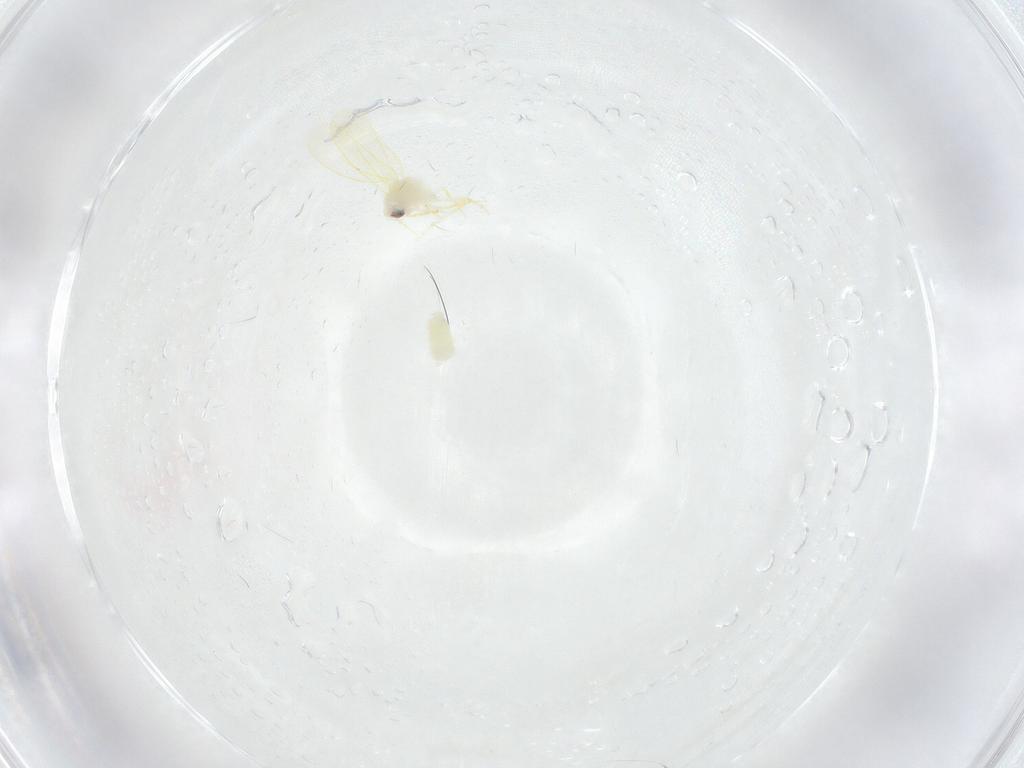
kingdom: Animalia
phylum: Arthropoda
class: Insecta
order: Hemiptera
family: Aleyrodidae
